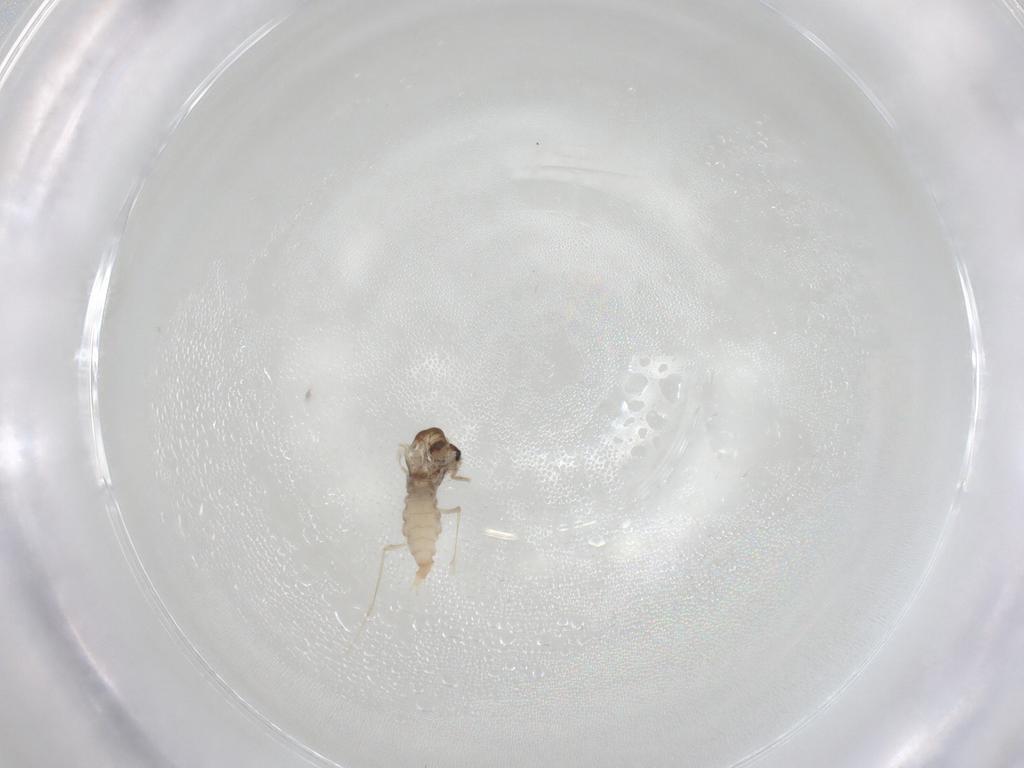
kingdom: Animalia
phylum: Arthropoda
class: Insecta
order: Diptera
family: Cecidomyiidae
